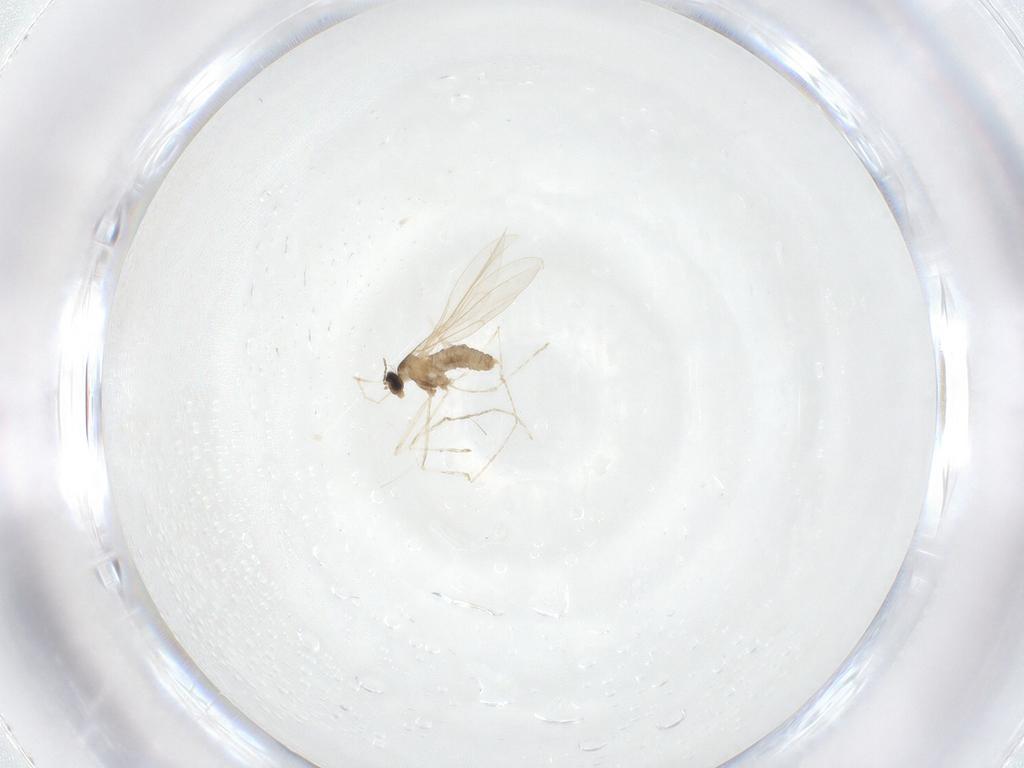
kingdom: Animalia
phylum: Arthropoda
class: Insecta
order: Diptera
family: Cecidomyiidae
